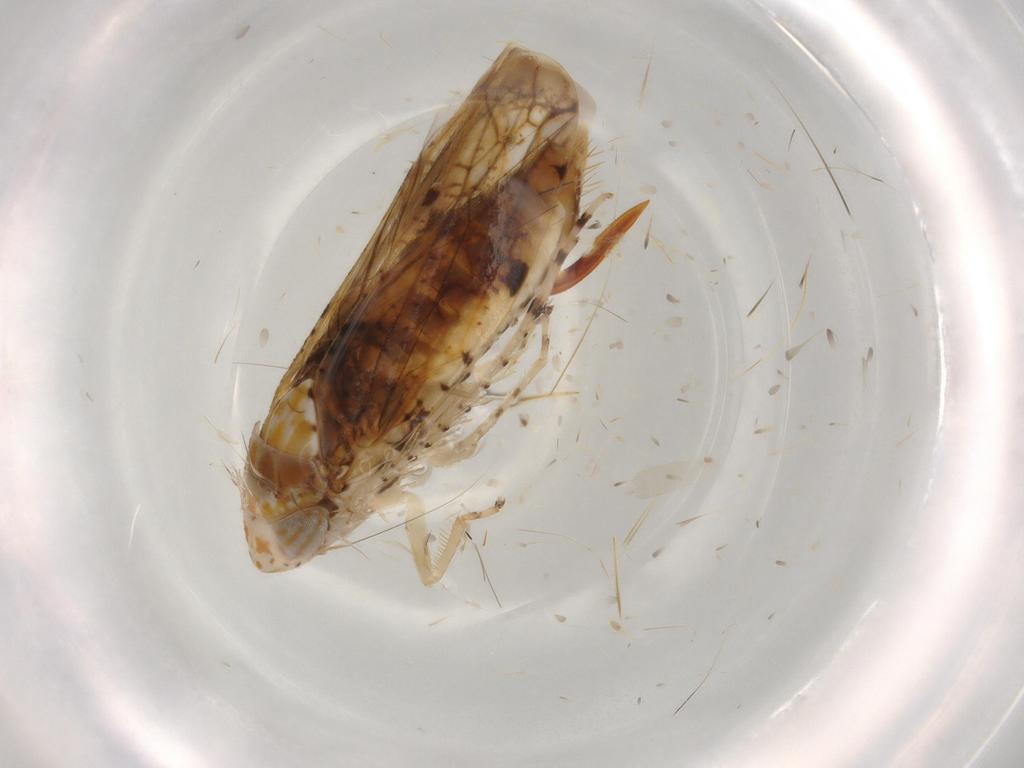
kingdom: Animalia
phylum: Arthropoda
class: Insecta
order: Hemiptera
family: Cicadellidae
